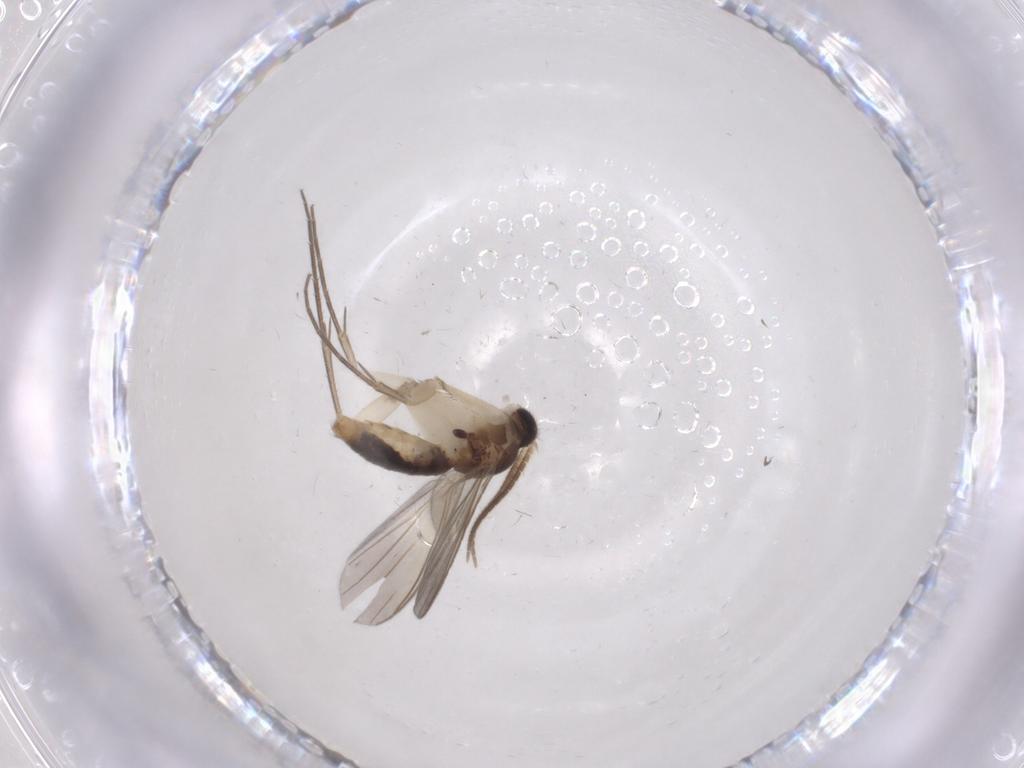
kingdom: Animalia
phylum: Arthropoda
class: Insecta
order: Diptera
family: Mycetophilidae
